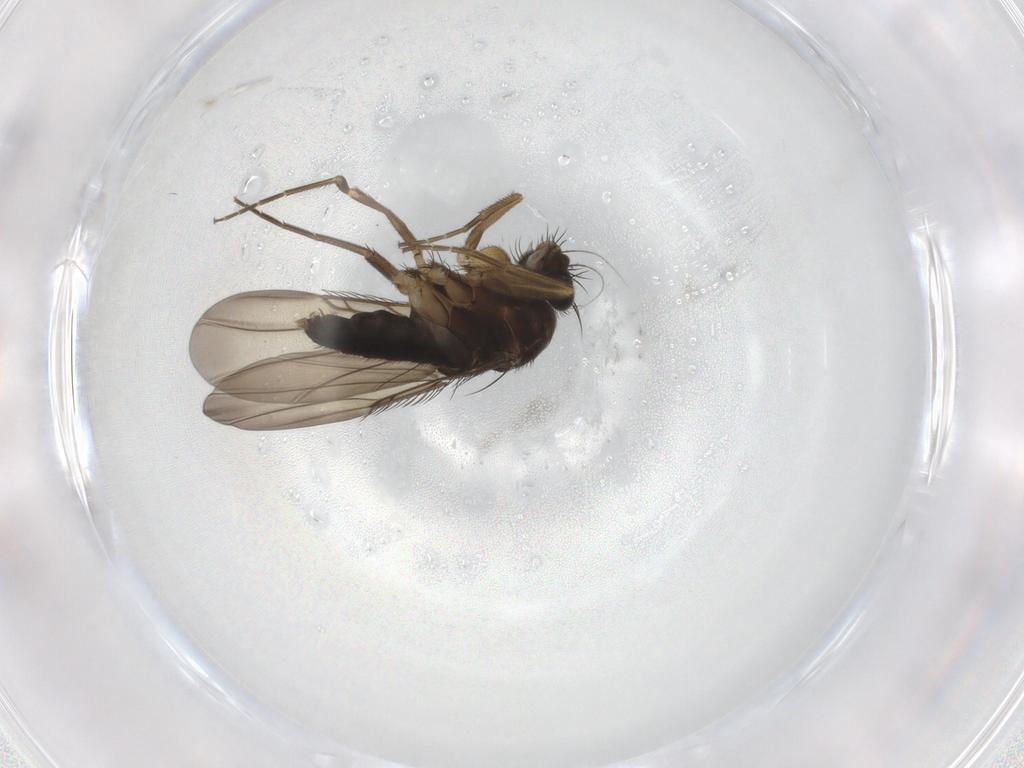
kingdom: Animalia
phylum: Arthropoda
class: Insecta
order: Diptera
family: Phoridae
